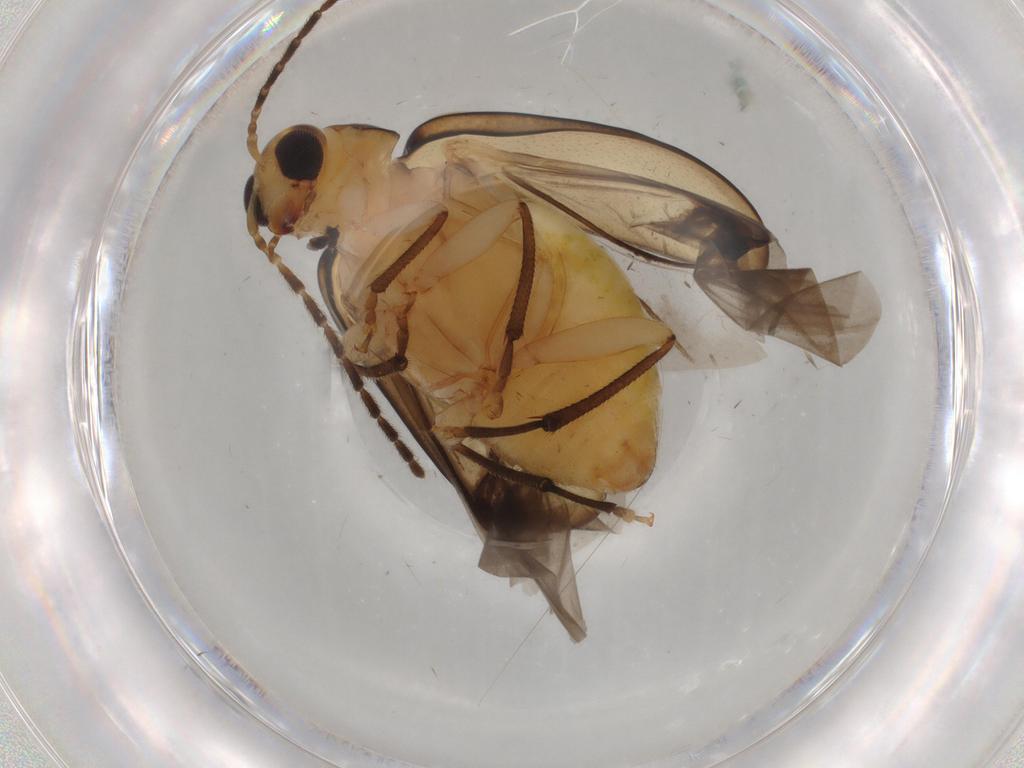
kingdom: Animalia
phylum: Arthropoda
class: Insecta
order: Coleoptera
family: Chrysomelidae
